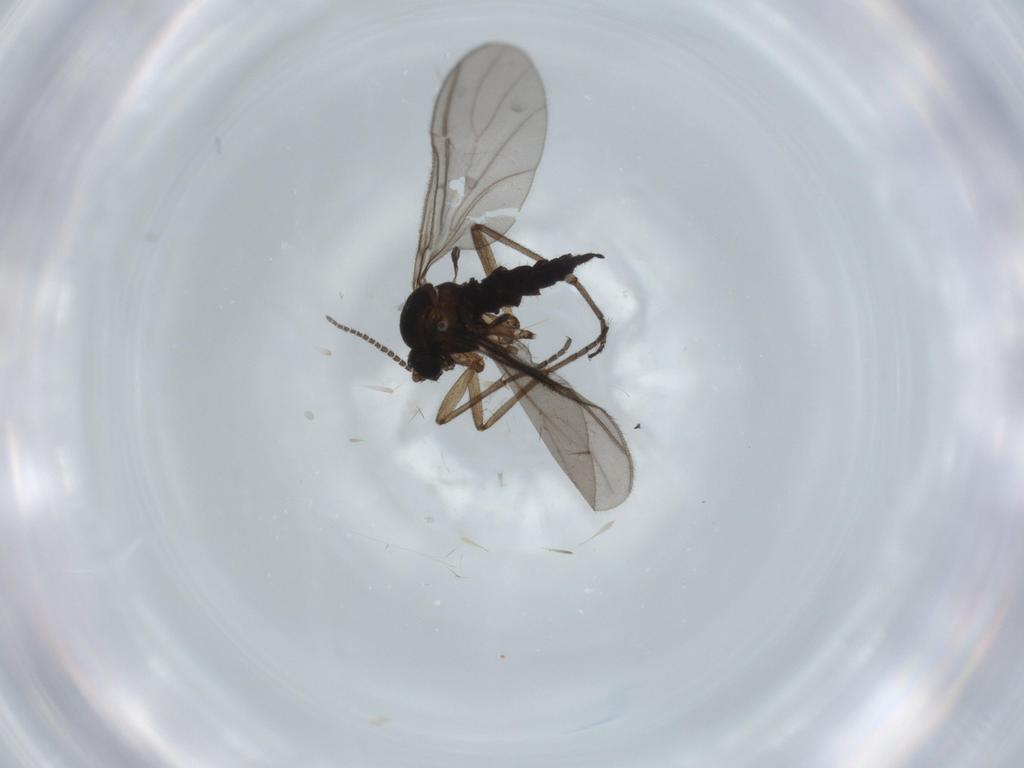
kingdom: Animalia
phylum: Arthropoda
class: Insecta
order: Diptera
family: Sciaridae
